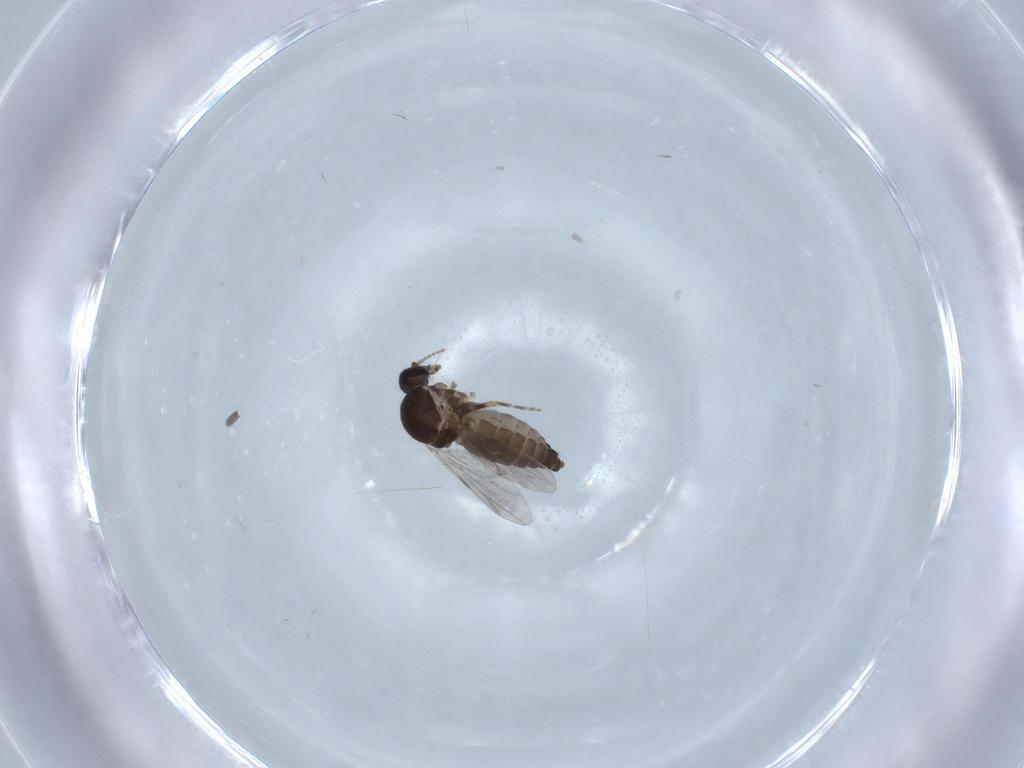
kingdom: Animalia
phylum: Arthropoda
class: Insecta
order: Diptera
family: Ceratopogonidae
